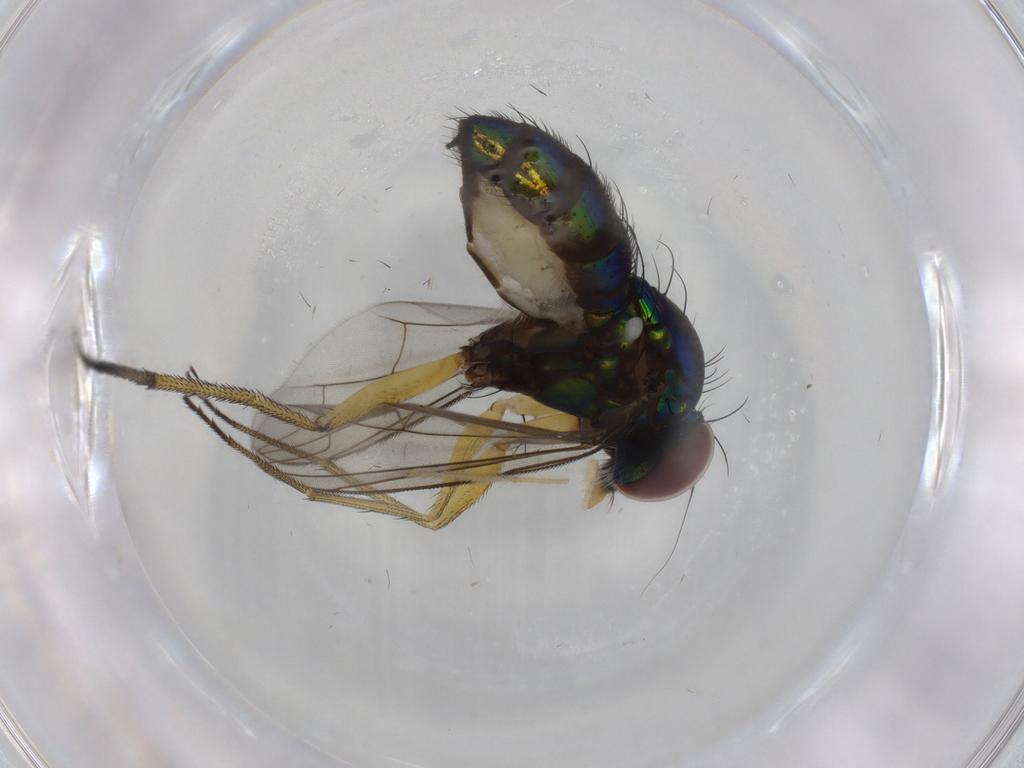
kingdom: Animalia
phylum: Arthropoda
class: Insecta
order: Diptera
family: Dolichopodidae
